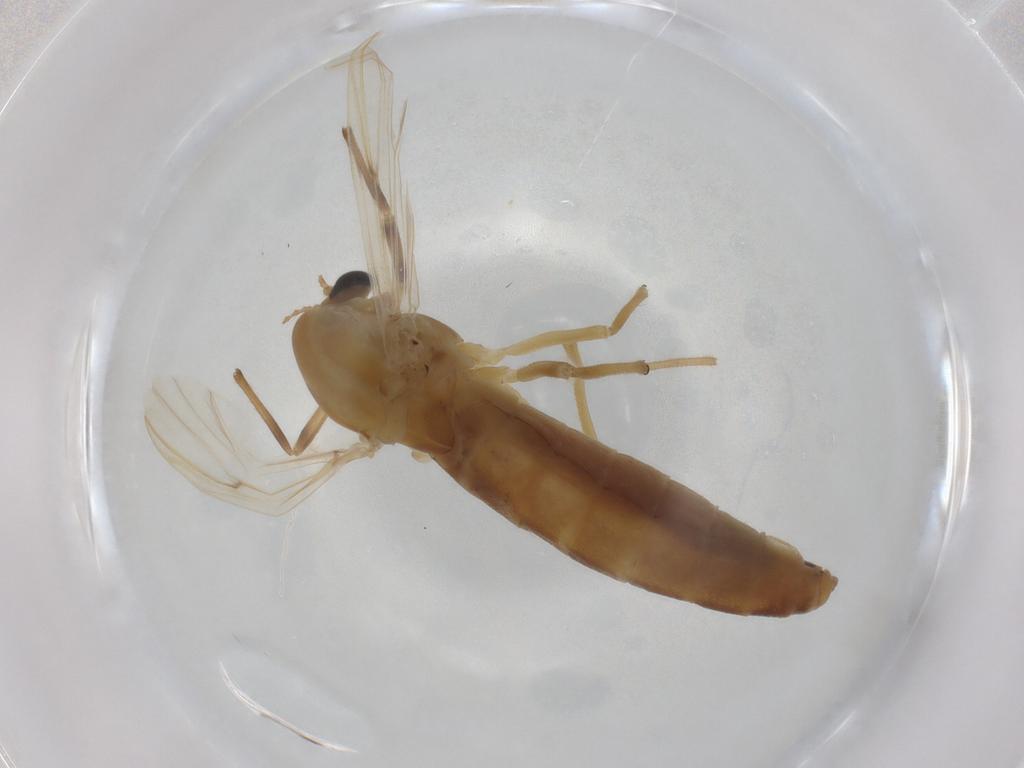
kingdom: Animalia
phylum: Arthropoda
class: Insecta
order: Diptera
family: Chironomidae
